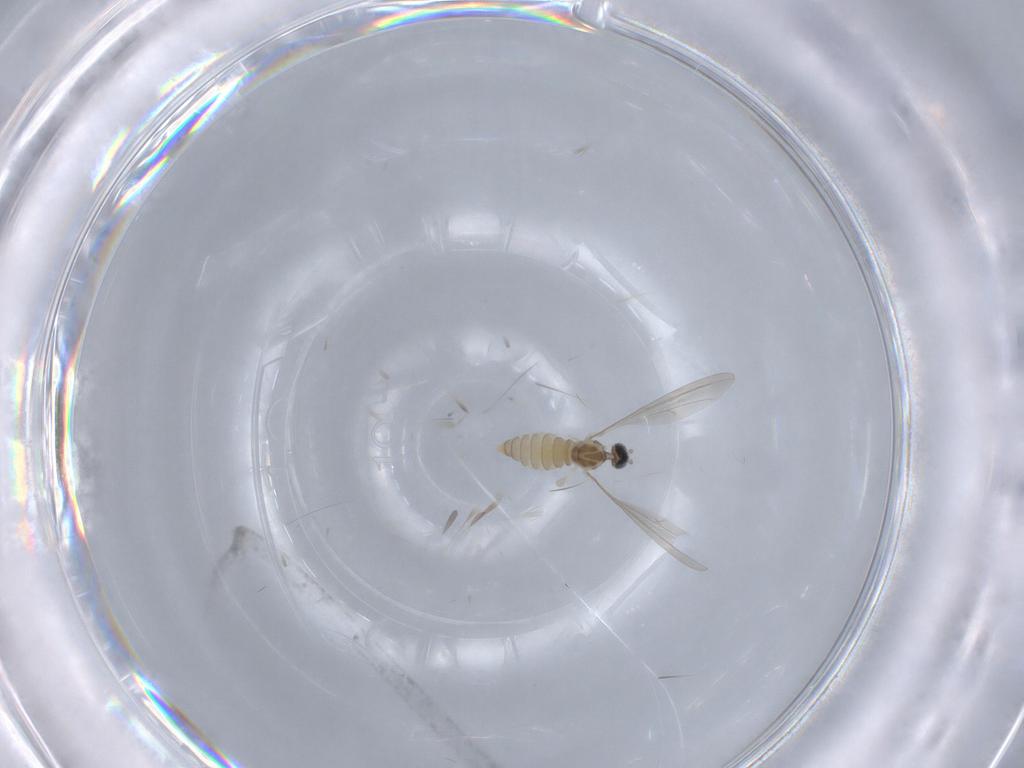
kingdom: Animalia
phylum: Arthropoda
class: Insecta
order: Diptera
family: Cecidomyiidae
